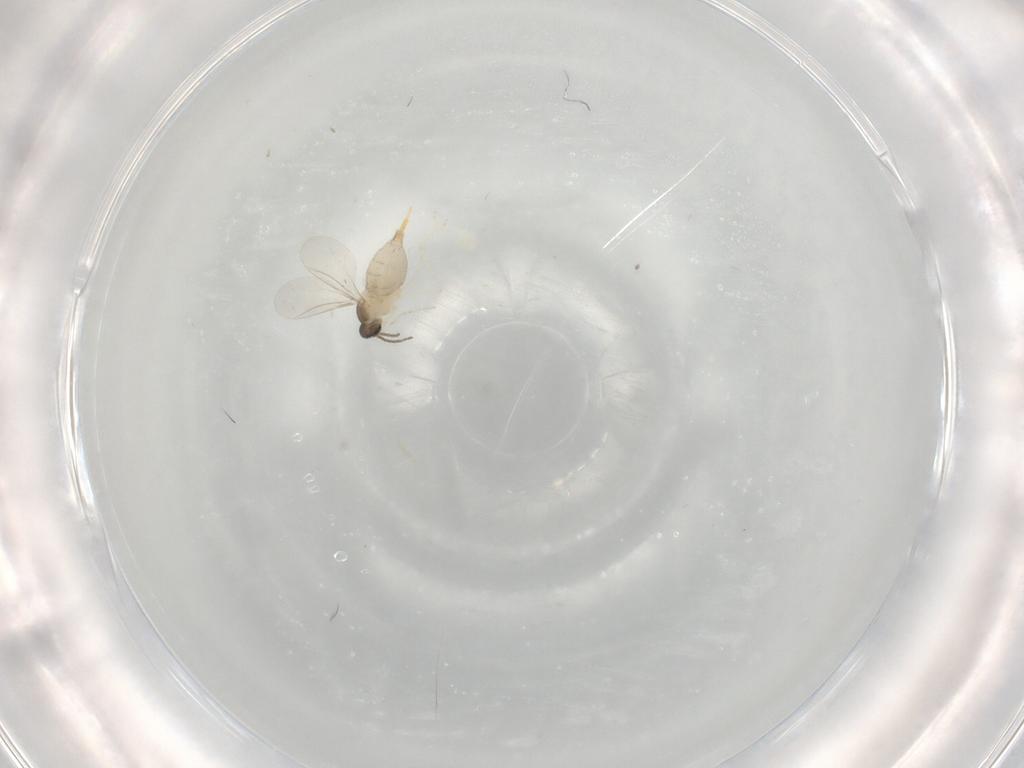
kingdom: Animalia
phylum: Arthropoda
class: Insecta
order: Diptera
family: Cecidomyiidae
